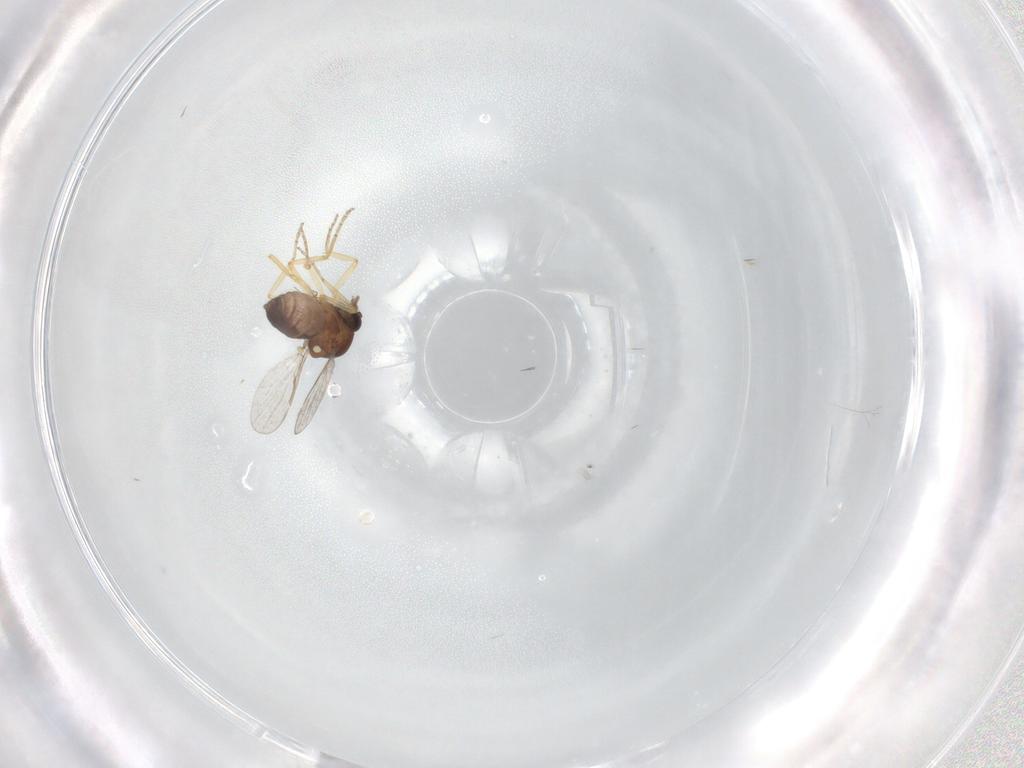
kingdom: Animalia
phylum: Arthropoda
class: Insecta
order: Diptera
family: Ceratopogonidae
